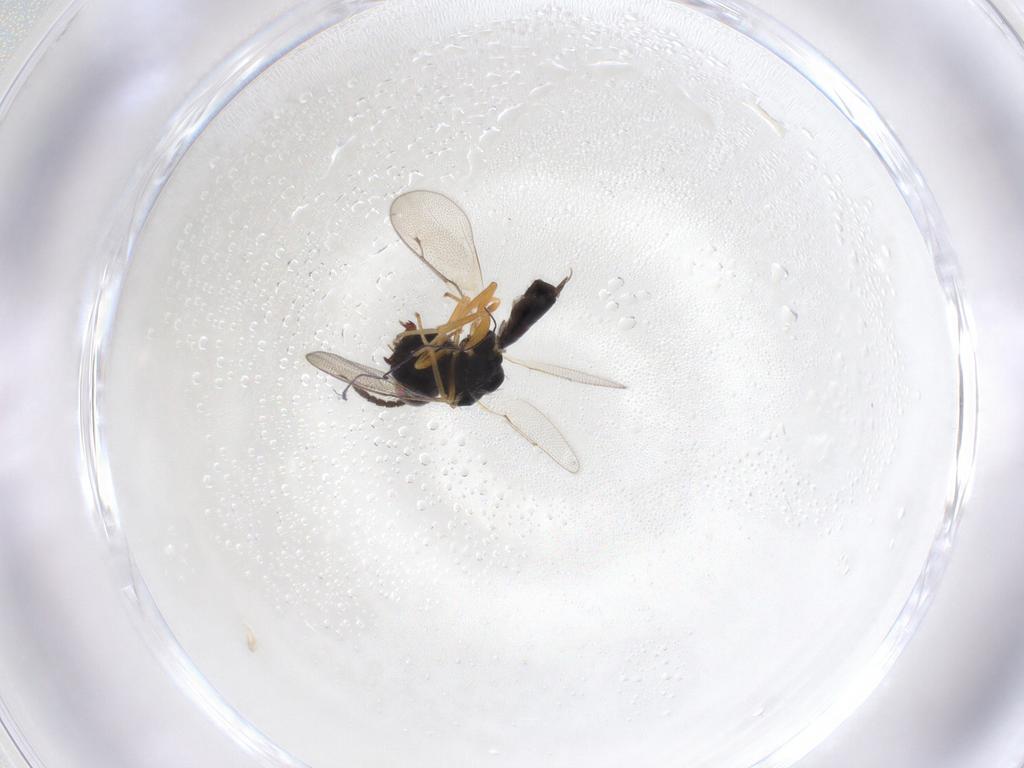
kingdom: Animalia
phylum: Arthropoda
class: Insecta
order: Hymenoptera
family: Pteromalidae
